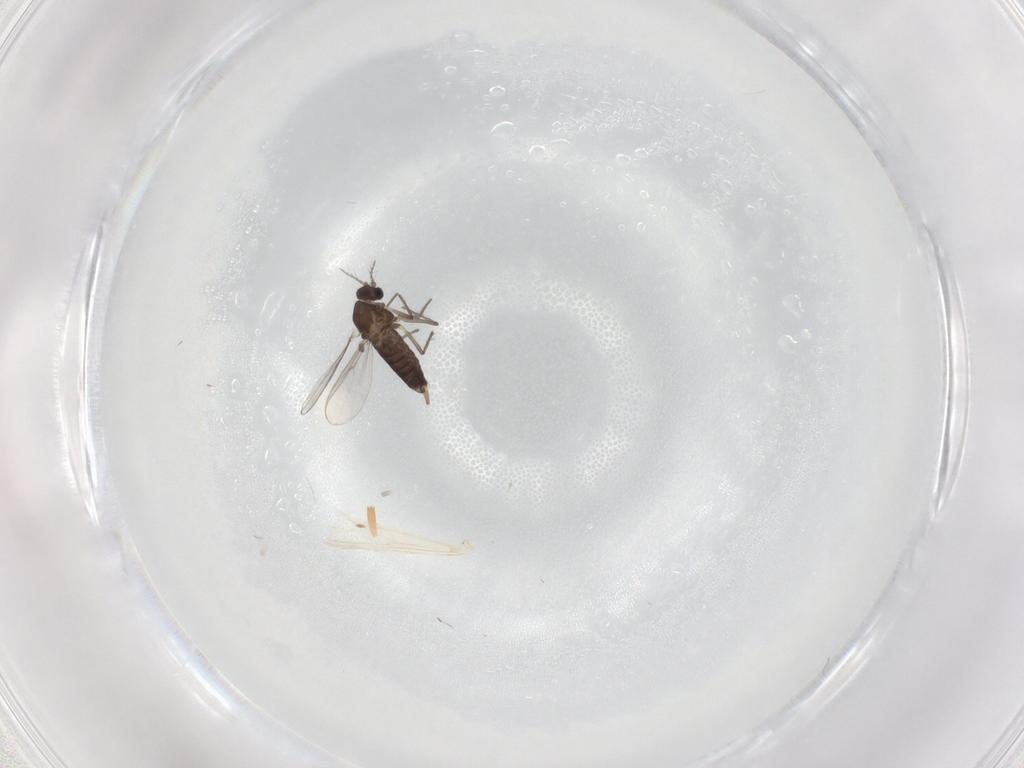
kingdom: Animalia
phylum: Arthropoda
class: Insecta
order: Diptera
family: Chironomidae
